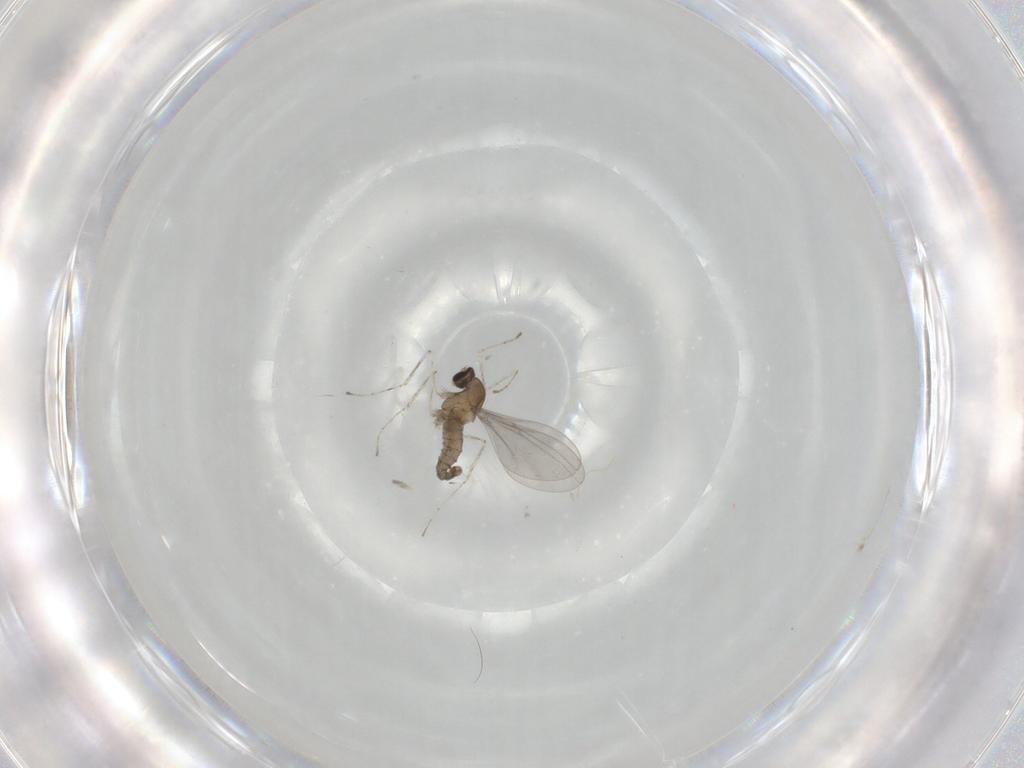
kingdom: Animalia
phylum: Arthropoda
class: Insecta
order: Diptera
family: Cecidomyiidae
